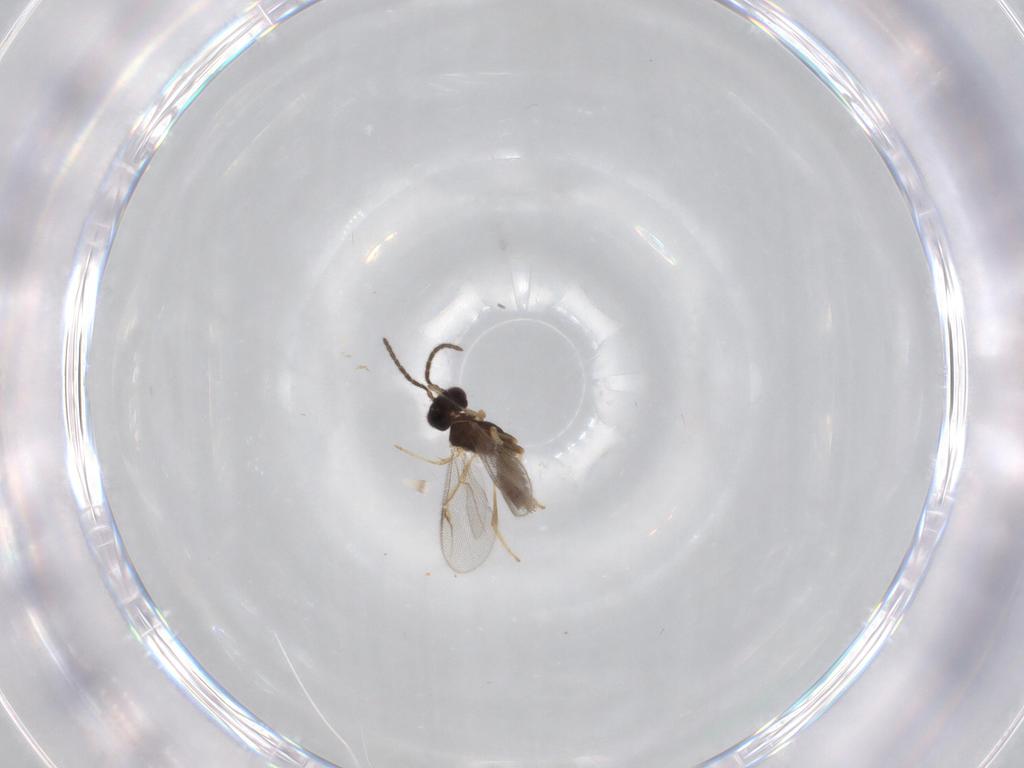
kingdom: Animalia
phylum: Arthropoda
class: Insecta
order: Hymenoptera
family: Dryinidae
